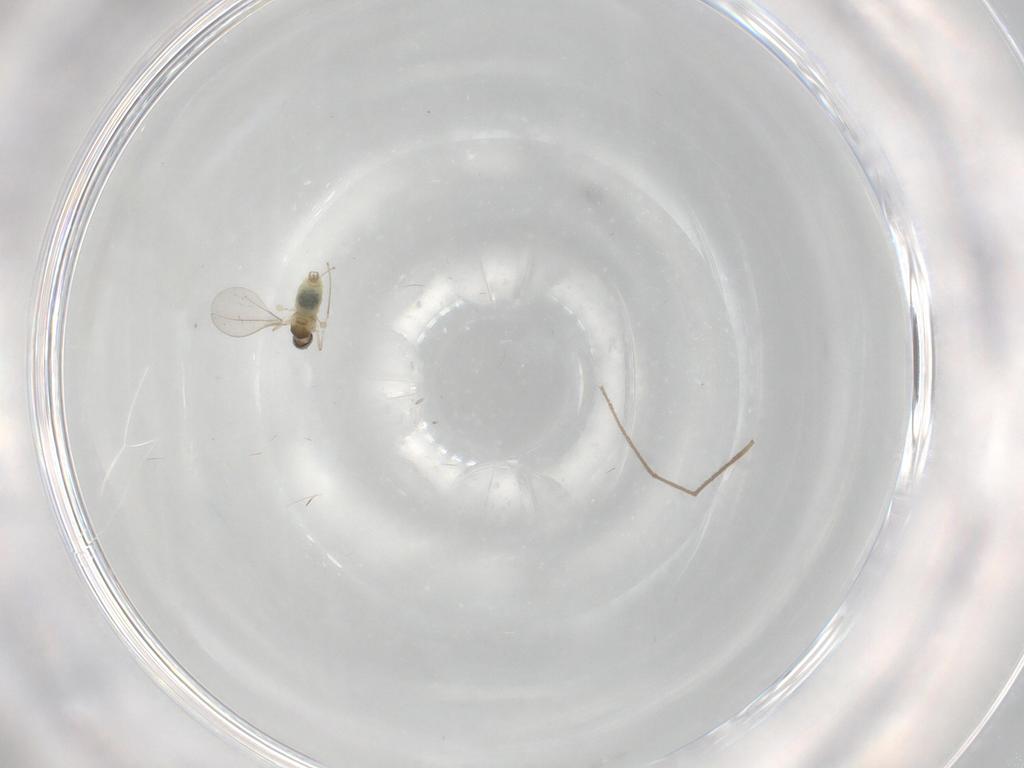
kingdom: Animalia
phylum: Arthropoda
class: Insecta
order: Diptera
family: Cecidomyiidae
